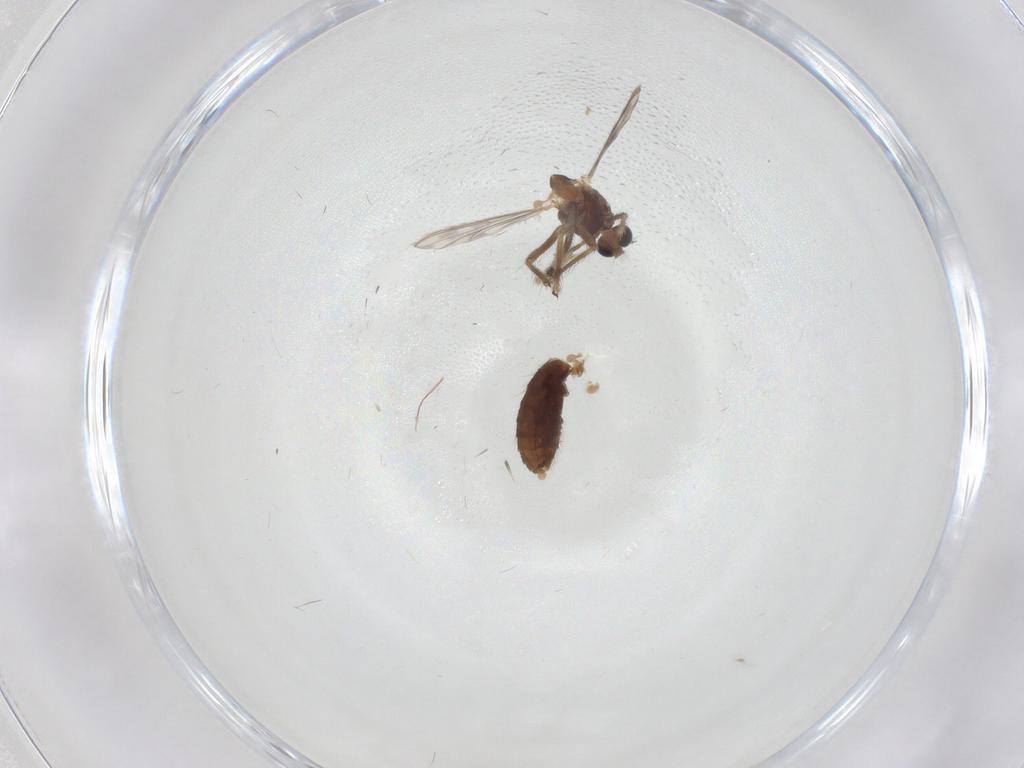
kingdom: Animalia
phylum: Arthropoda
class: Insecta
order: Diptera
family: Chironomidae
